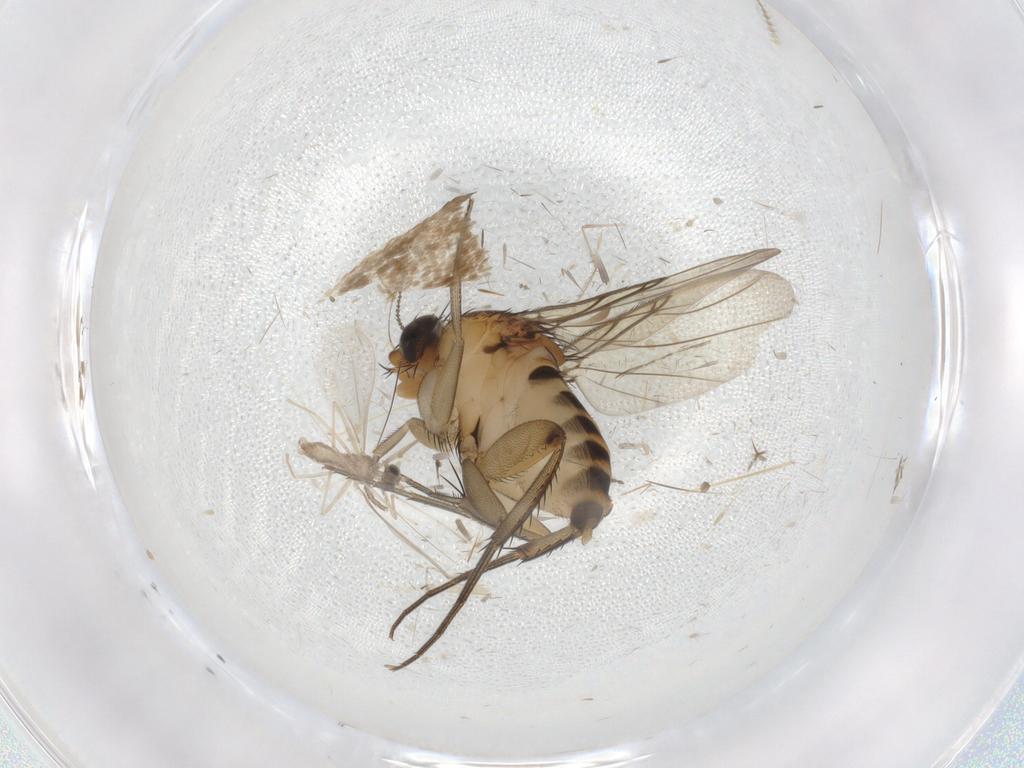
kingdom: Animalia
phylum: Arthropoda
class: Insecta
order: Diptera
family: Cecidomyiidae
